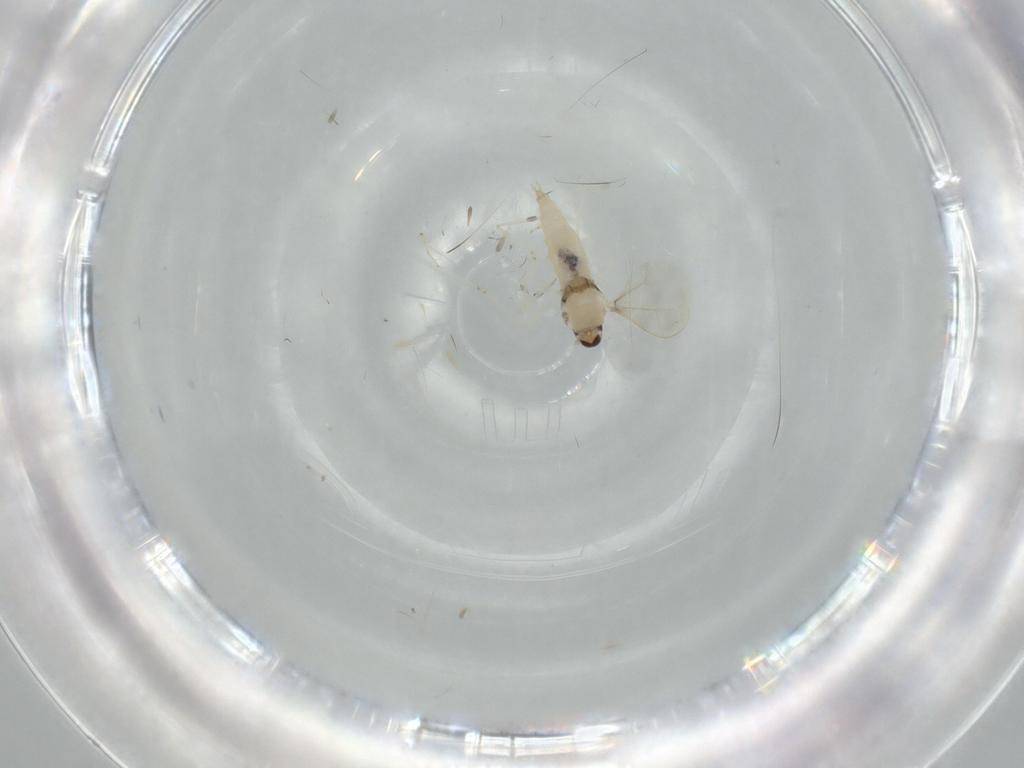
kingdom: Animalia
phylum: Arthropoda
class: Insecta
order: Diptera
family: Cecidomyiidae
